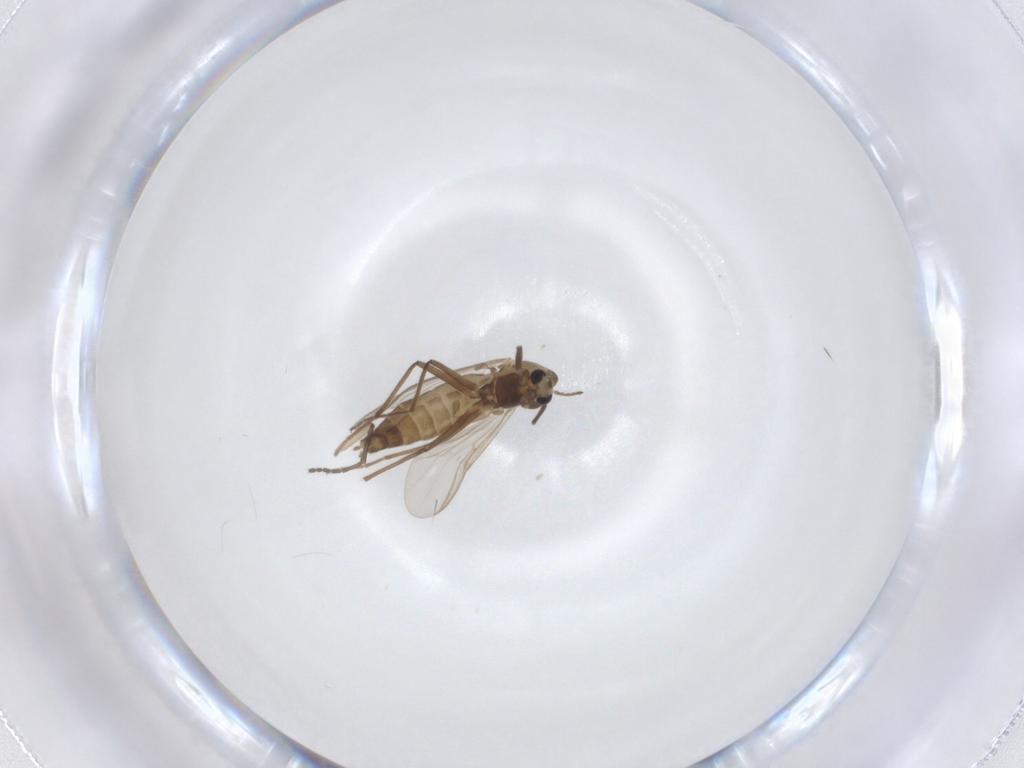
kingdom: Animalia
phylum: Arthropoda
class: Insecta
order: Diptera
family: Chironomidae
